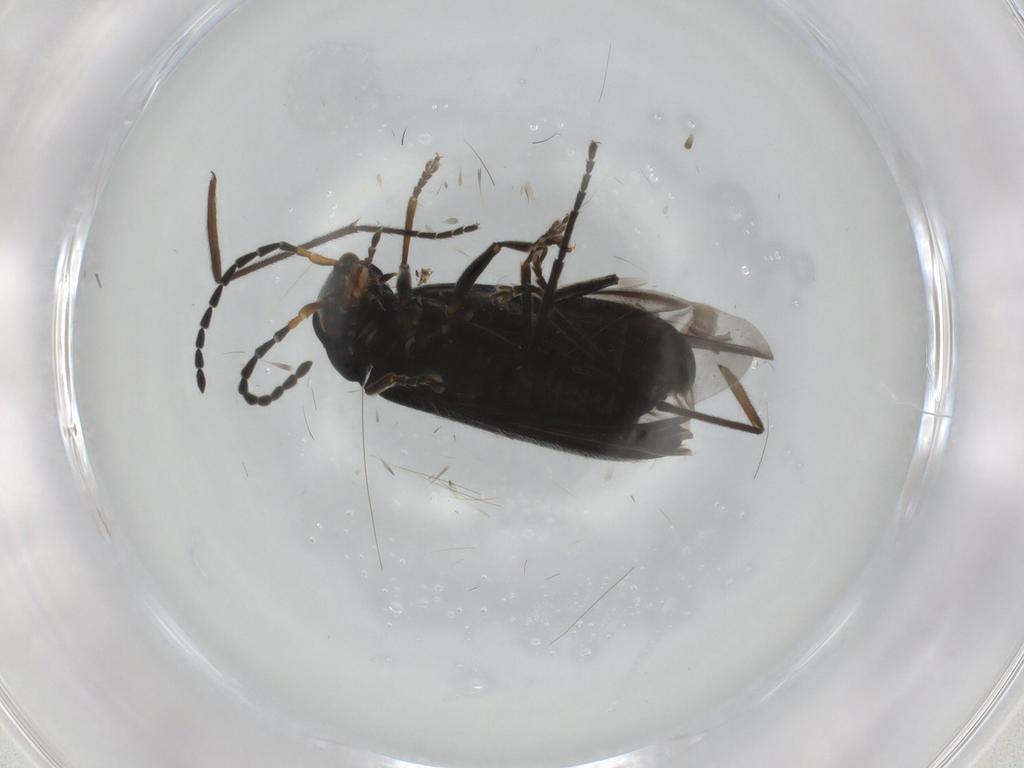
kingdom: Animalia
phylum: Arthropoda
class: Insecta
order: Coleoptera
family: Cantharidae
